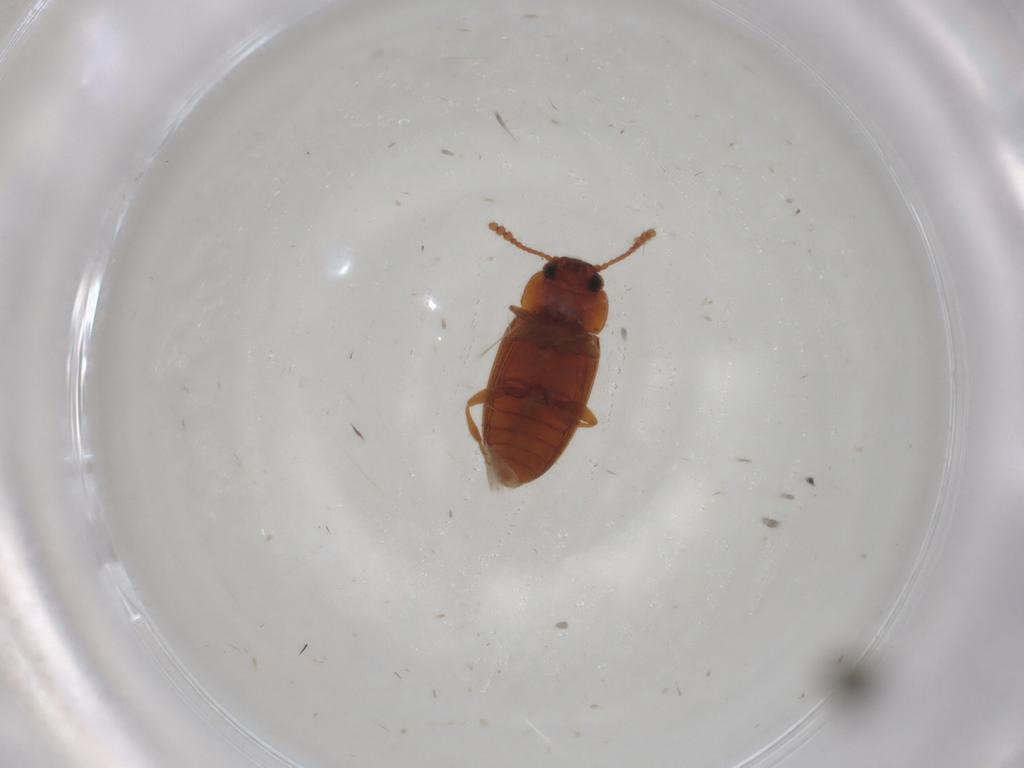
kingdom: Animalia
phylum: Arthropoda
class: Insecta
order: Coleoptera
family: Erotylidae
